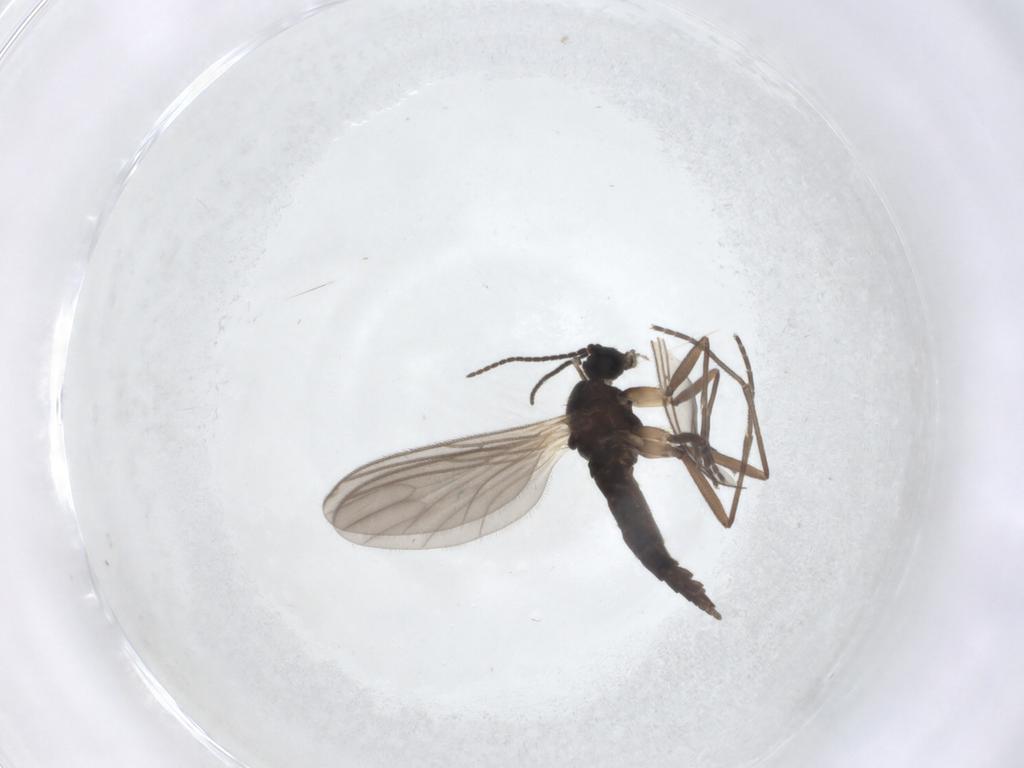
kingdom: Animalia
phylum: Arthropoda
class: Insecta
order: Diptera
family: Sciaridae
